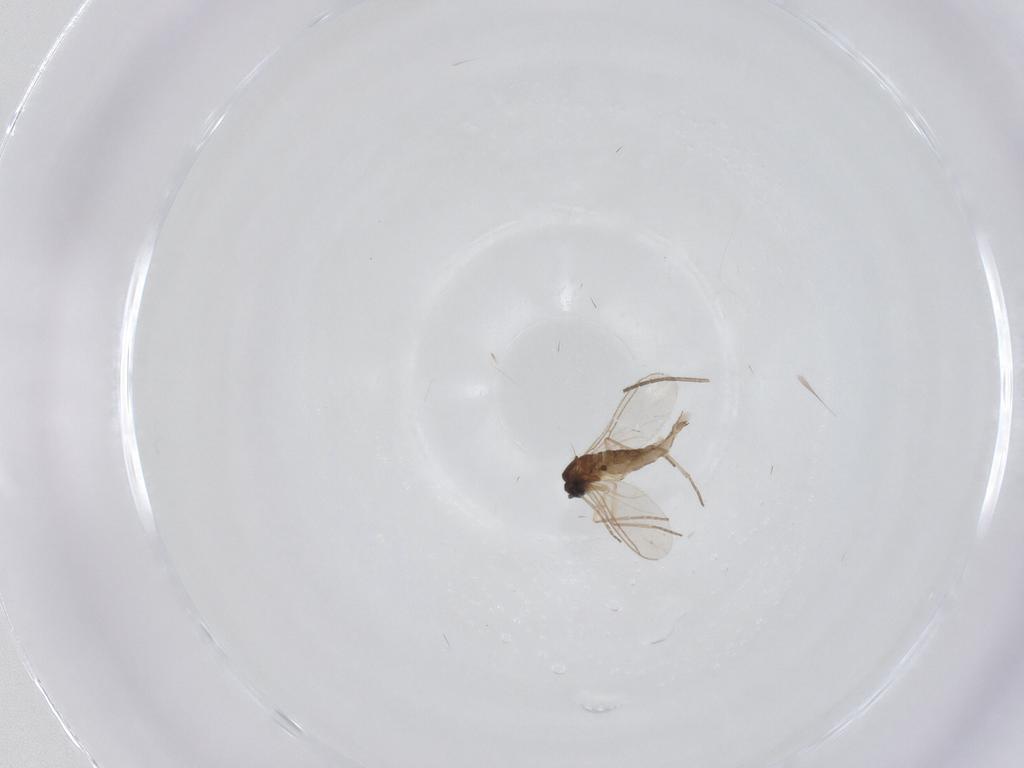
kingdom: Animalia
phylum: Arthropoda
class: Insecta
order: Diptera
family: Sciaridae
